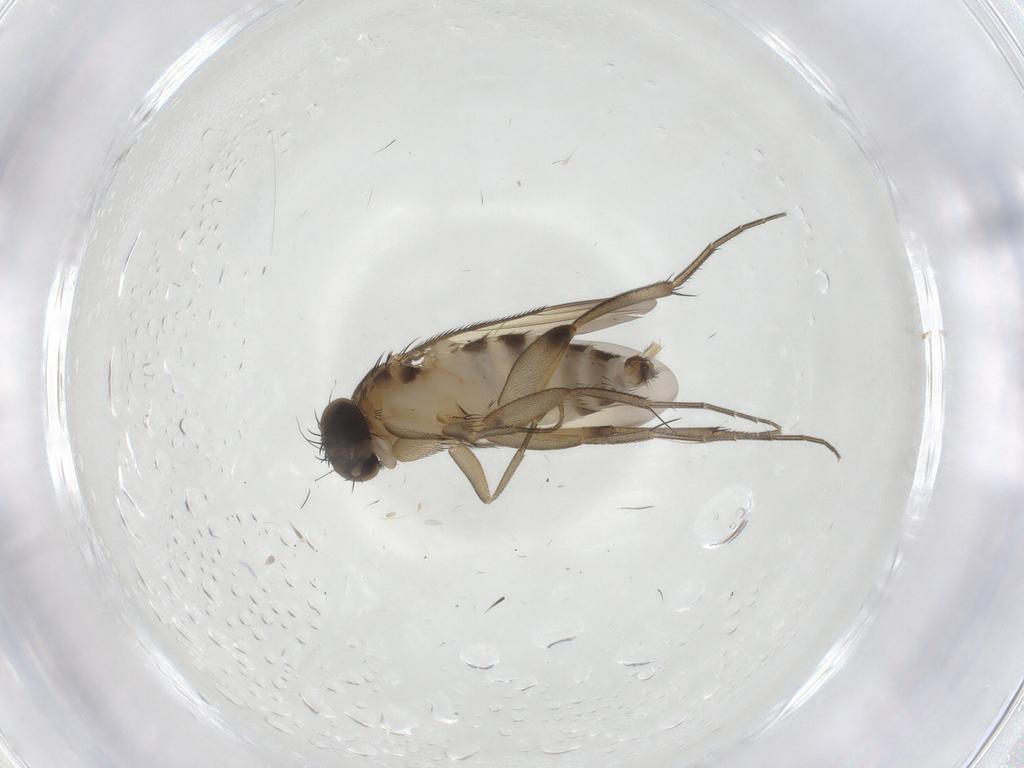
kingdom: Animalia
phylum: Arthropoda
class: Insecta
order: Diptera
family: Phoridae
